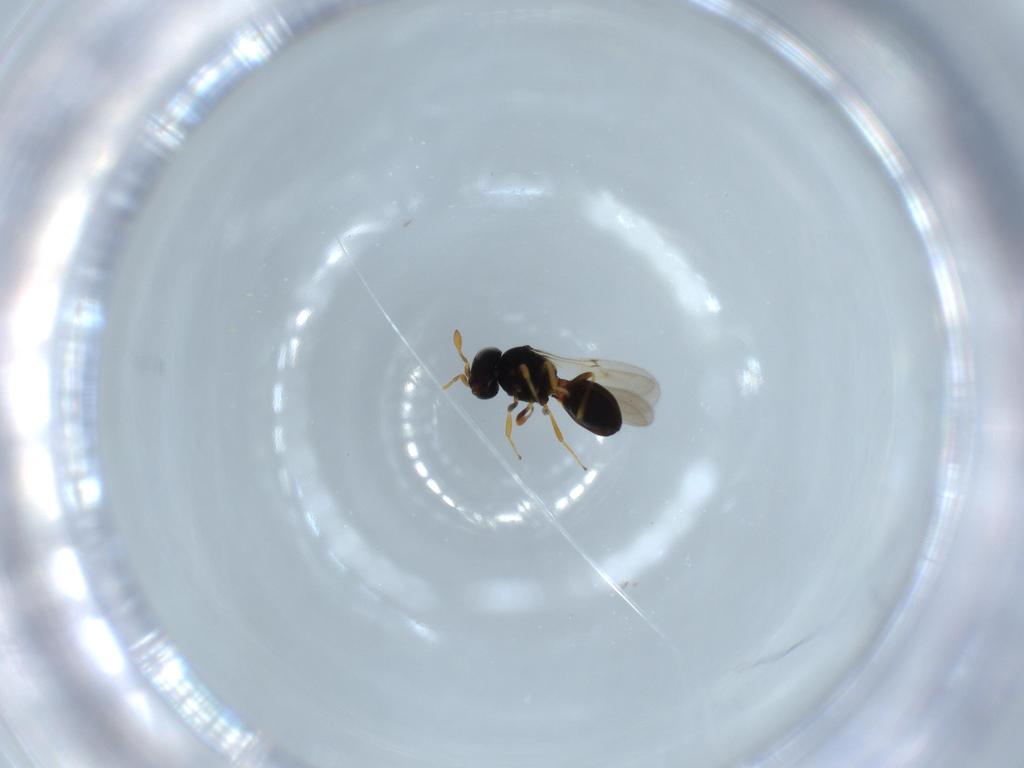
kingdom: Animalia
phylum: Arthropoda
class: Insecta
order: Hymenoptera
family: Scelionidae
